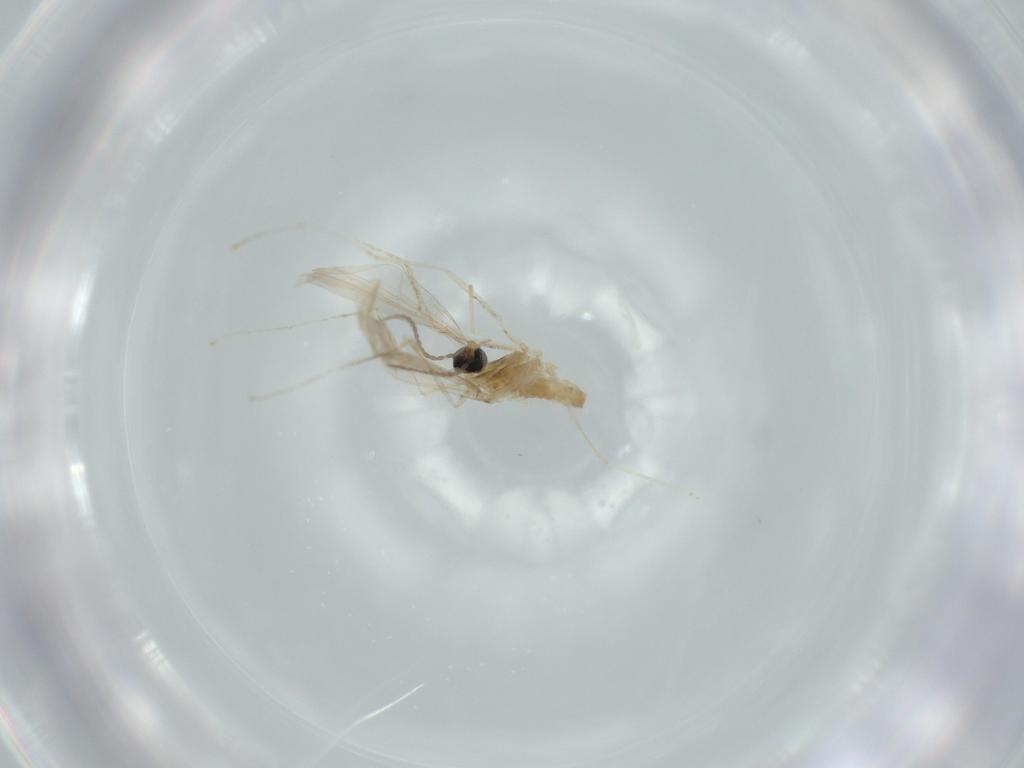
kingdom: Animalia
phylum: Arthropoda
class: Insecta
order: Diptera
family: Cecidomyiidae
